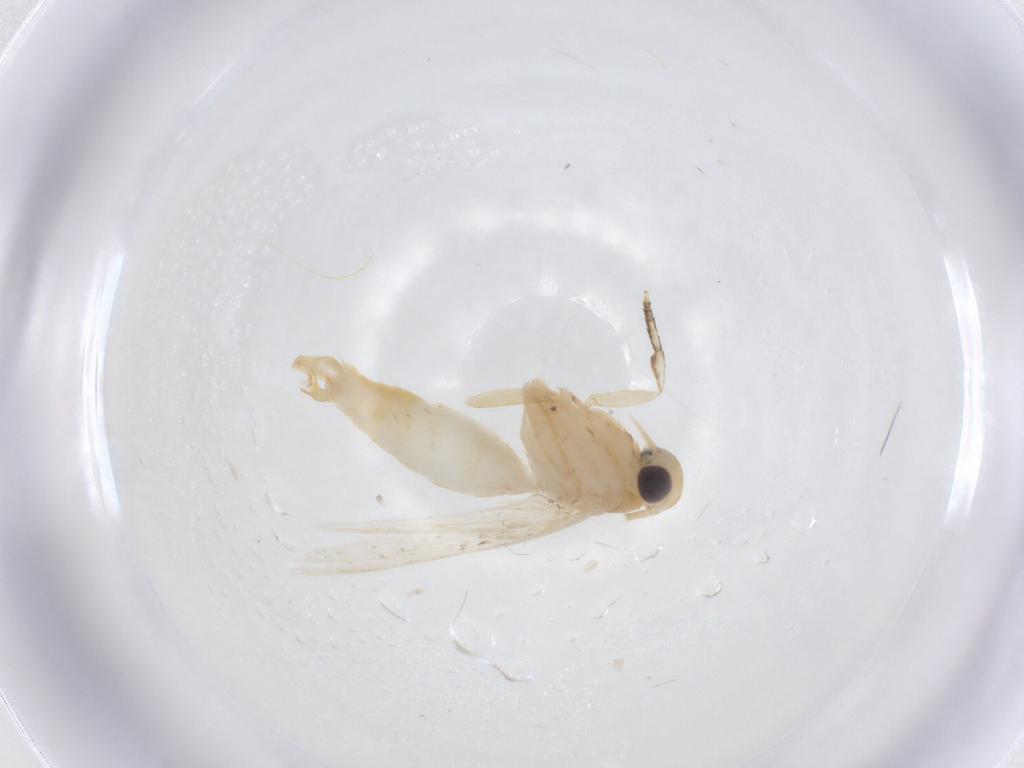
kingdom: Animalia
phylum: Arthropoda
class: Insecta
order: Lepidoptera
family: Erebidae
